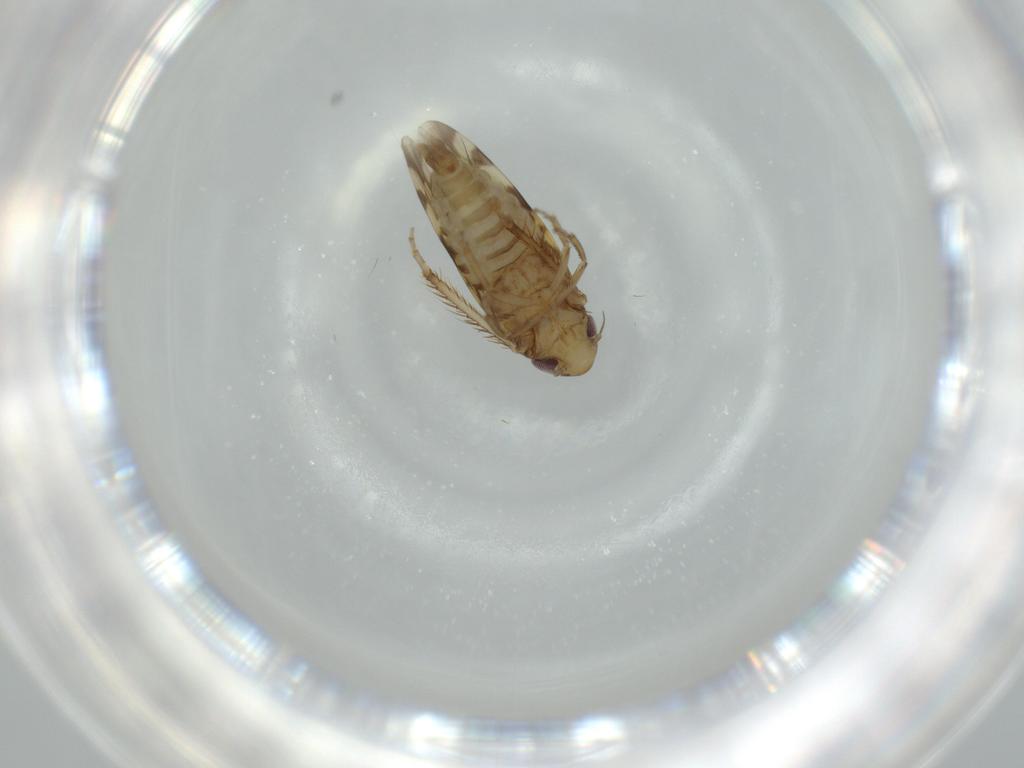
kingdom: Animalia
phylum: Arthropoda
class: Insecta
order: Hemiptera
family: Cicadellidae
